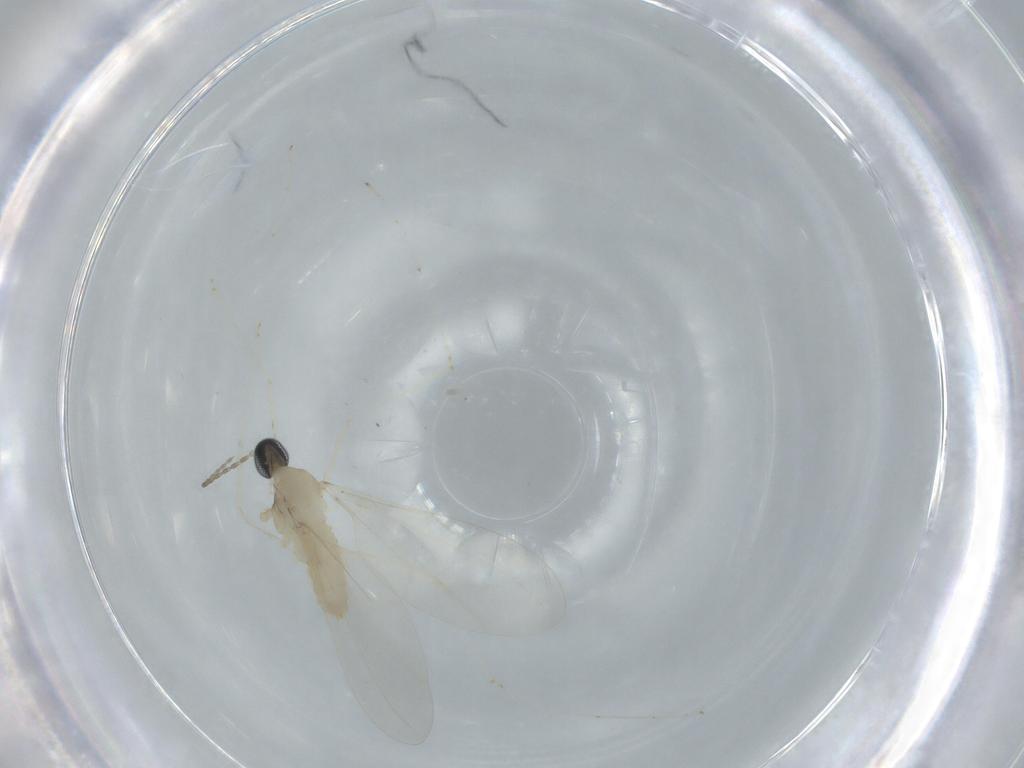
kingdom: Animalia
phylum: Arthropoda
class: Insecta
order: Diptera
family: Cecidomyiidae
